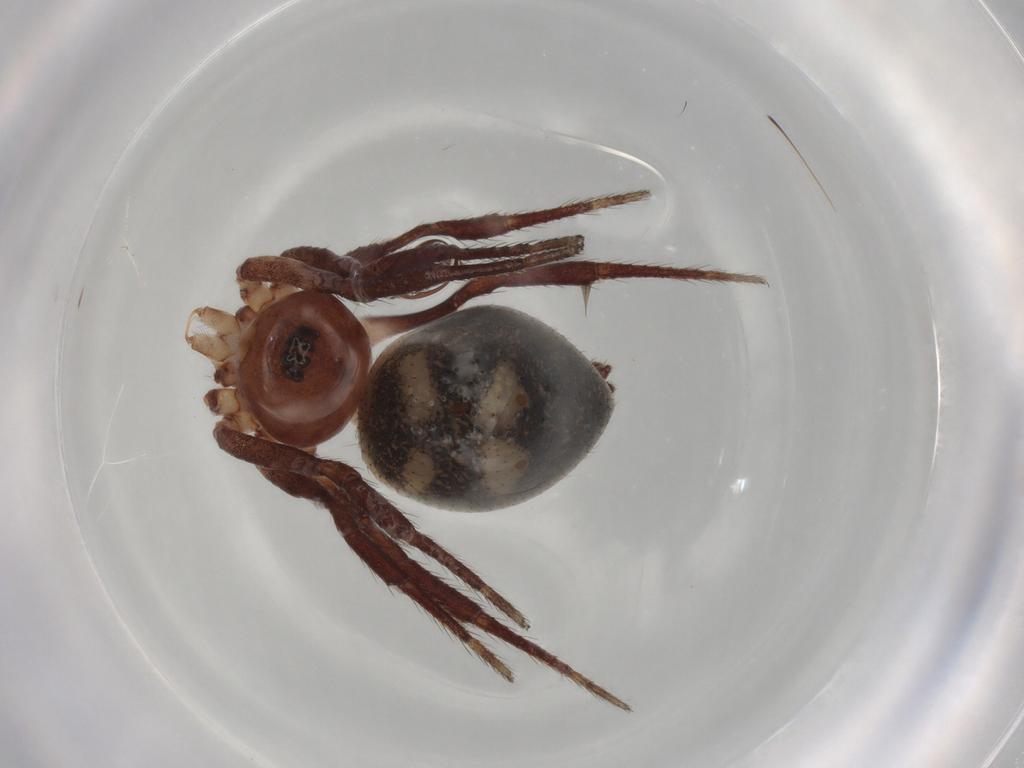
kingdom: Animalia
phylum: Arthropoda
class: Arachnida
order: Araneae
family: Theridiidae
